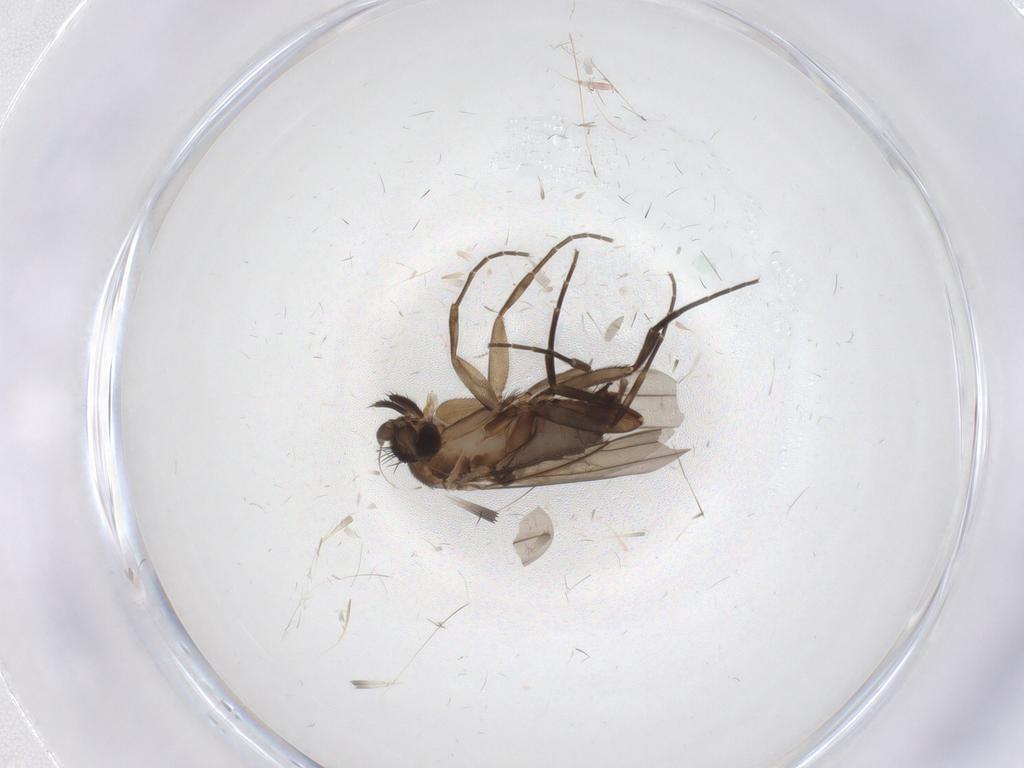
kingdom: Animalia
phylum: Arthropoda
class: Insecta
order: Diptera
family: Phoridae
